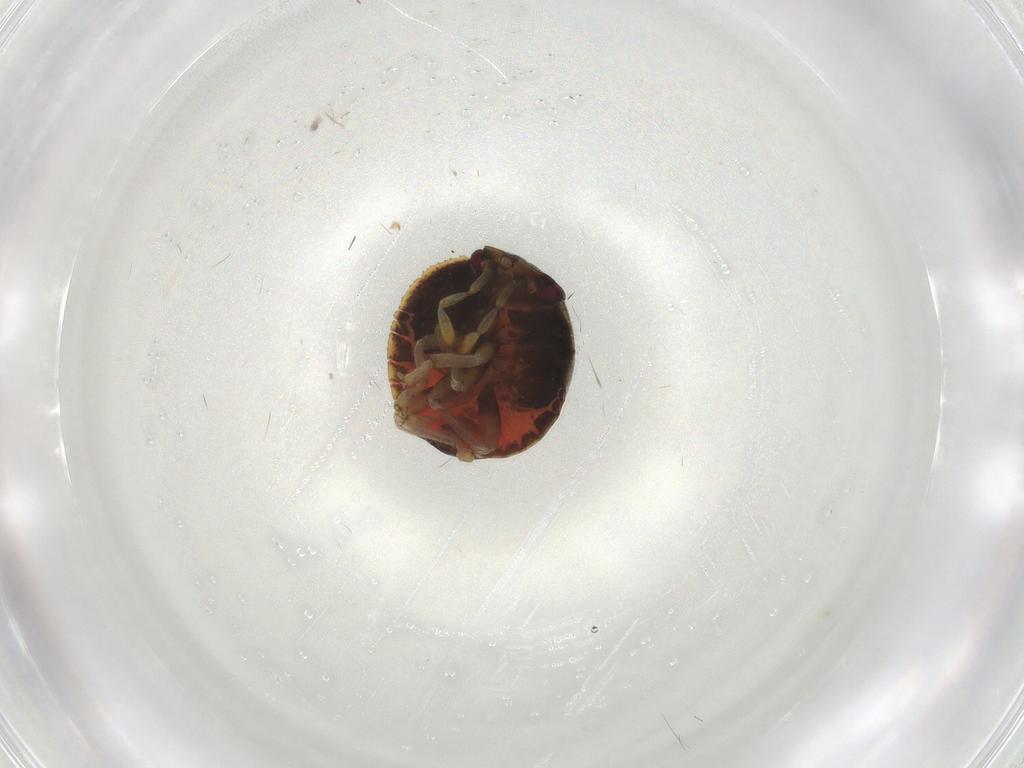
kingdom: Animalia
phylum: Arthropoda
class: Insecta
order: Hemiptera
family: Pentatomidae
